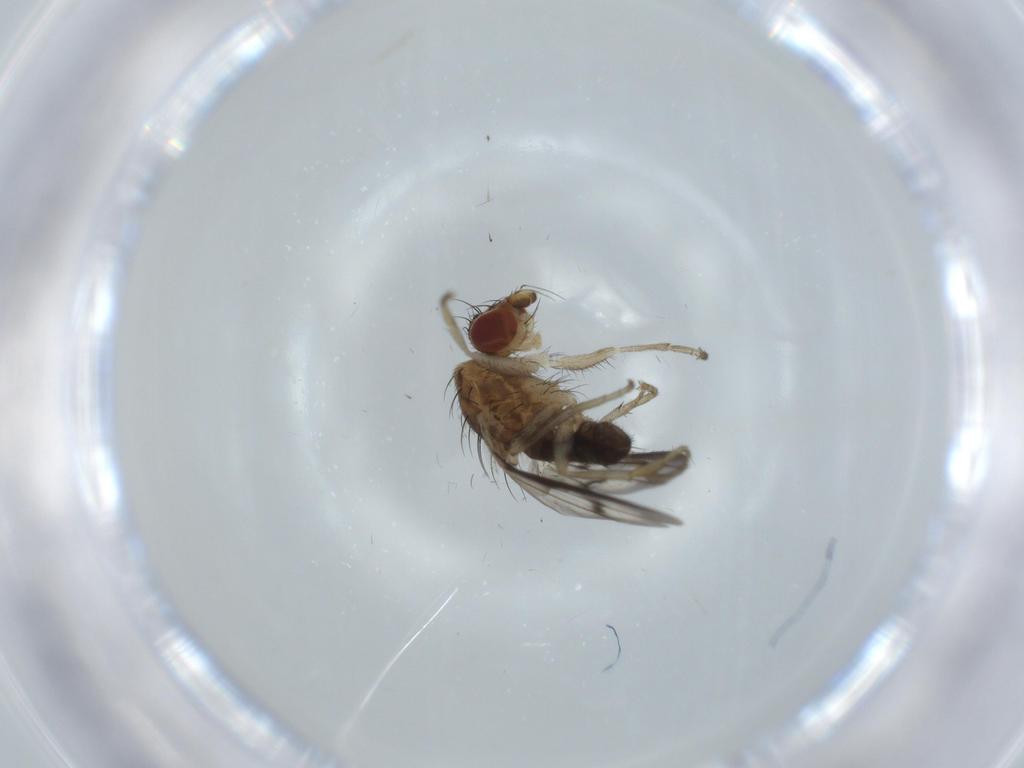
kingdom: Animalia
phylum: Arthropoda
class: Insecta
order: Diptera
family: Heleomyzidae
